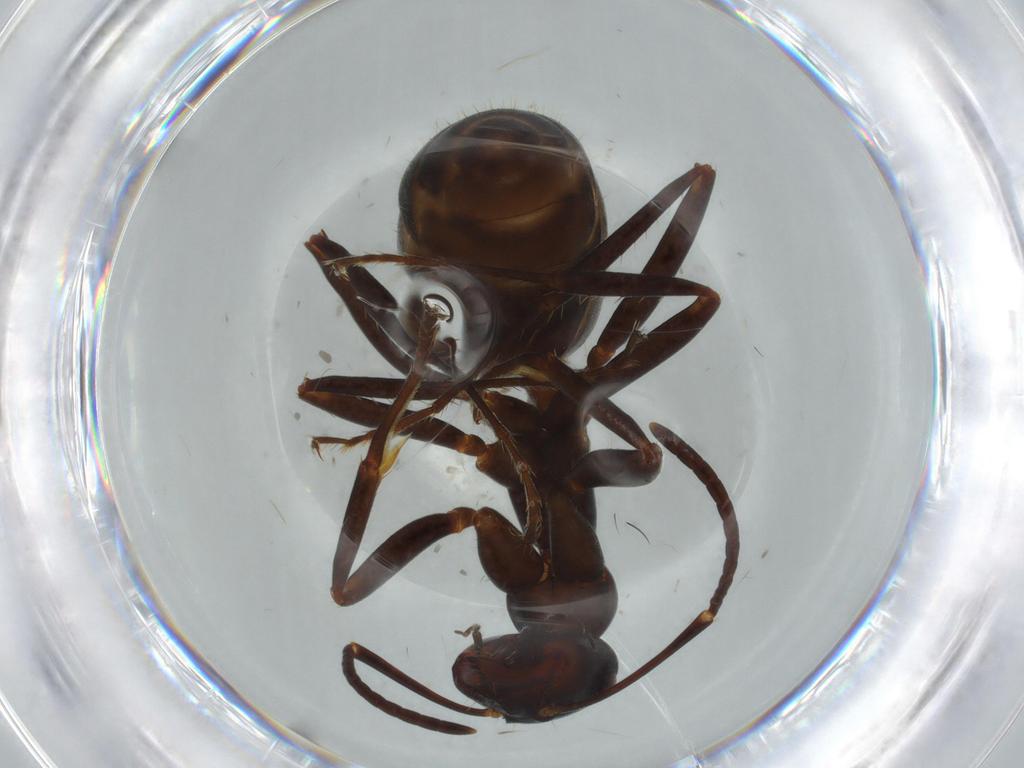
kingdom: Animalia
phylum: Arthropoda
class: Insecta
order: Hymenoptera
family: Formicidae
